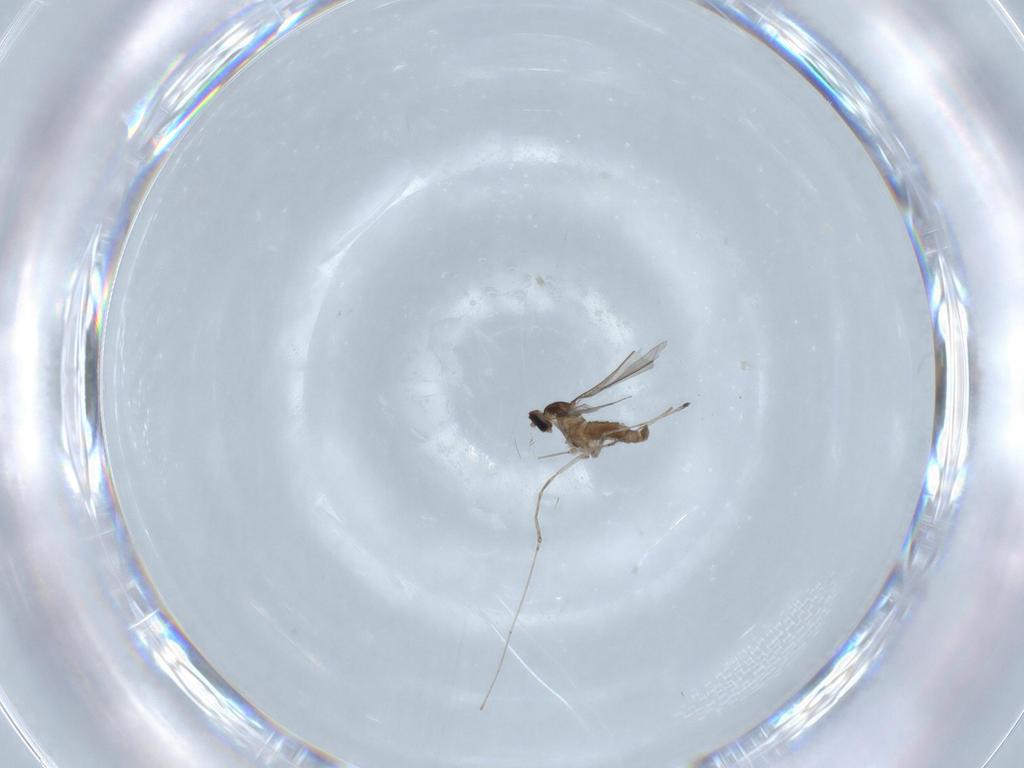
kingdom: Animalia
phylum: Arthropoda
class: Insecta
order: Diptera
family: Cecidomyiidae
